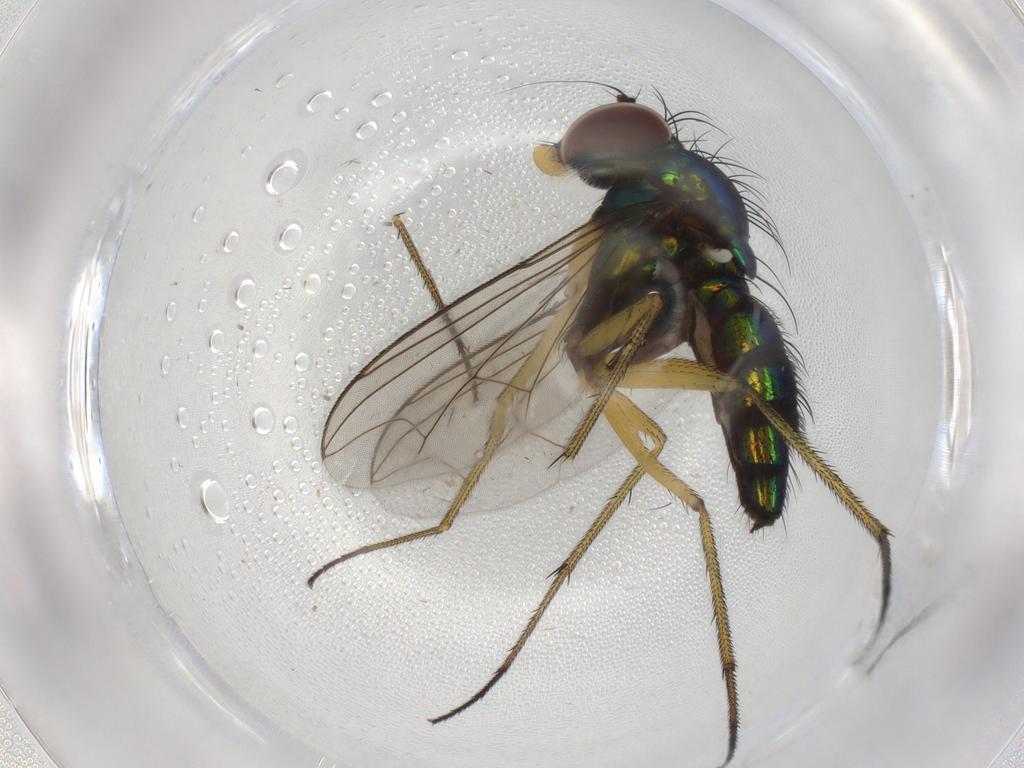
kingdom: Animalia
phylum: Arthropoda
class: Insecta
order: Diptera
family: Dolichopodidae
